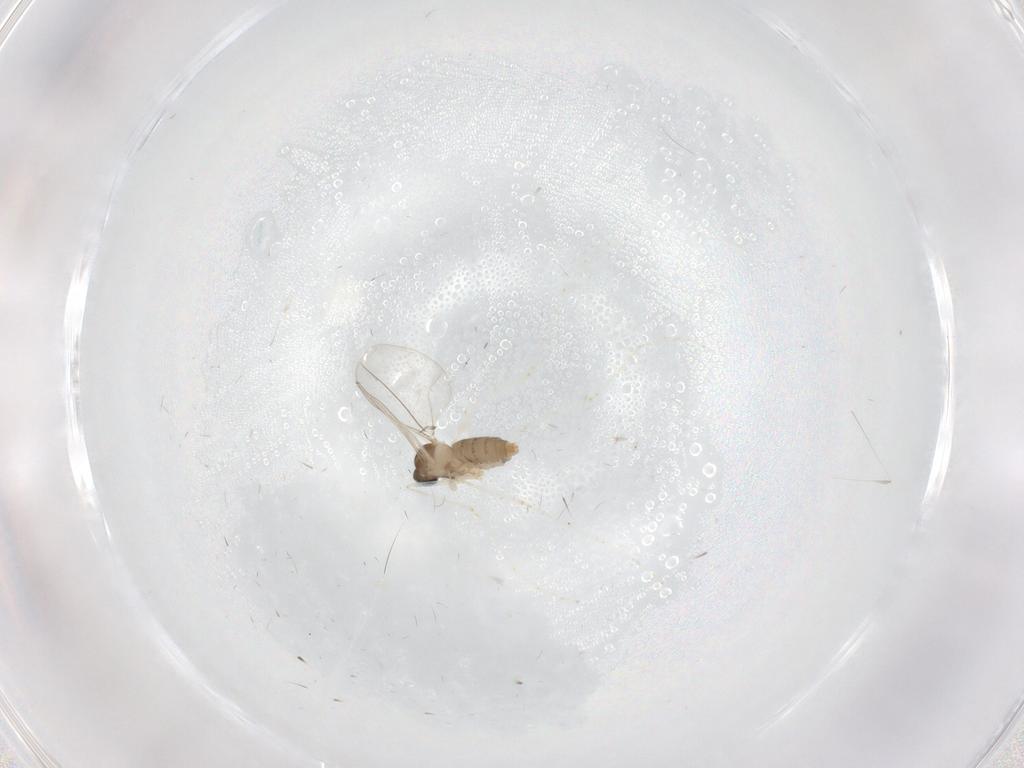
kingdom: Animalia
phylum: Arthropoda
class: Insecta
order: Diptera
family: Cecidomyiidae
